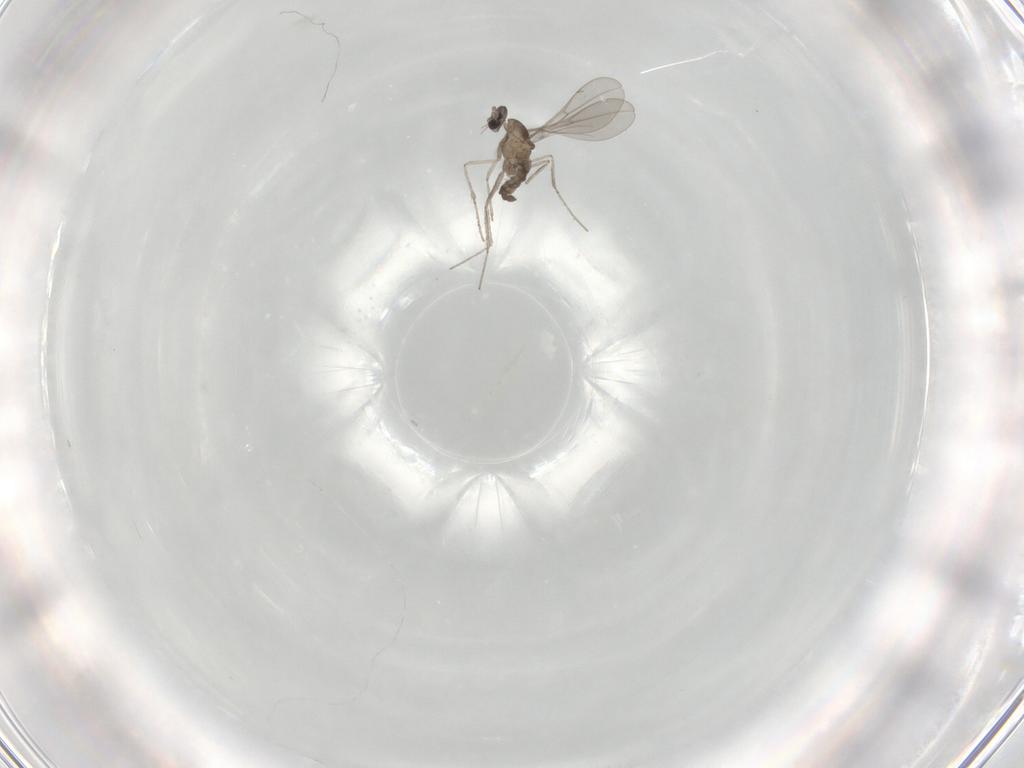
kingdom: Animalia
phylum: Arthropoda
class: Insecta
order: Diptera
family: Cecidomyiidae
